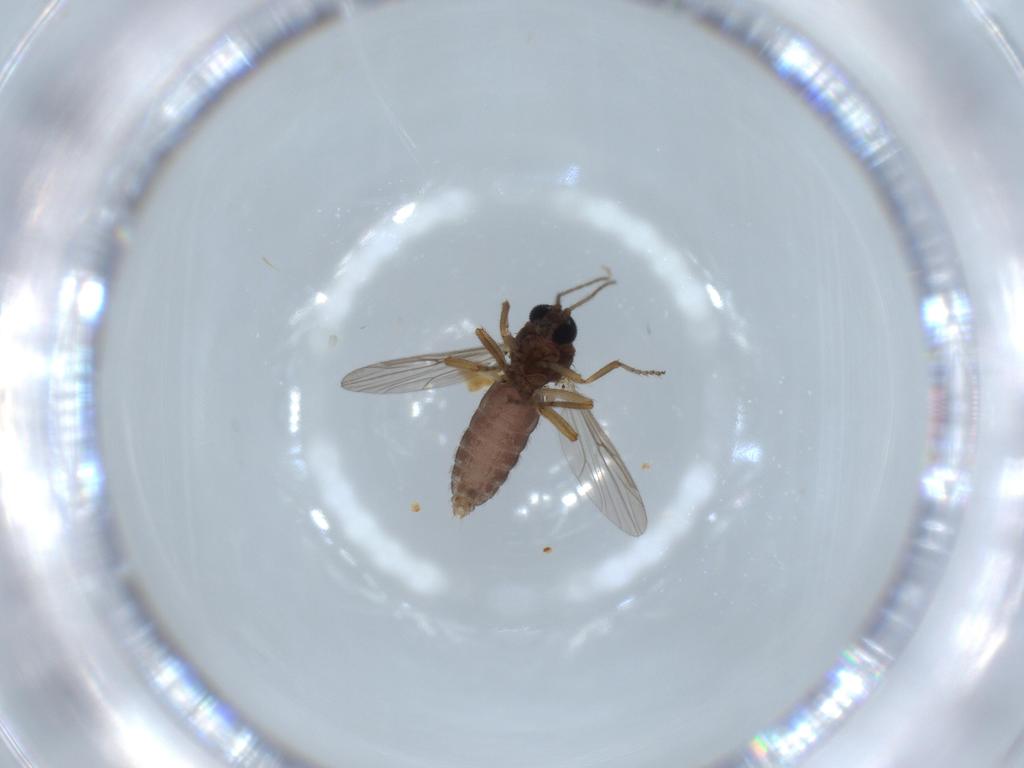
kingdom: Animalia
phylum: Arthropoda
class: Insecta
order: Diptera
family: Ceratopogonidae
